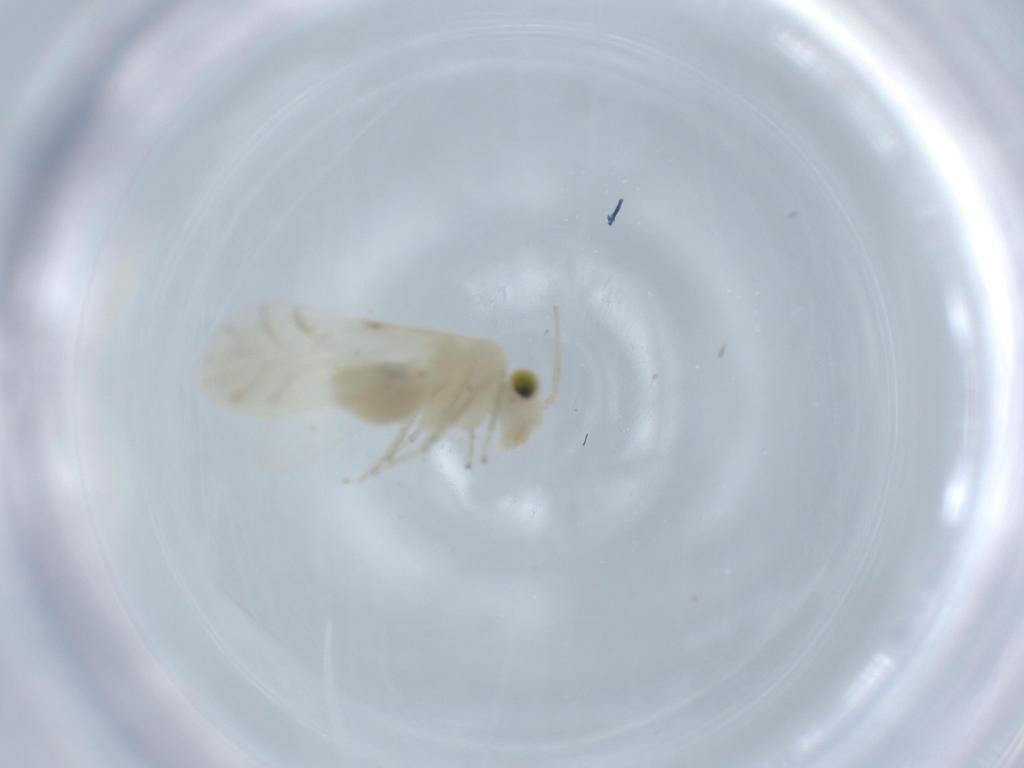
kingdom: Animalia
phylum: Arthropoda
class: Insecta
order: Psocodea
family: Caeciliusidae
